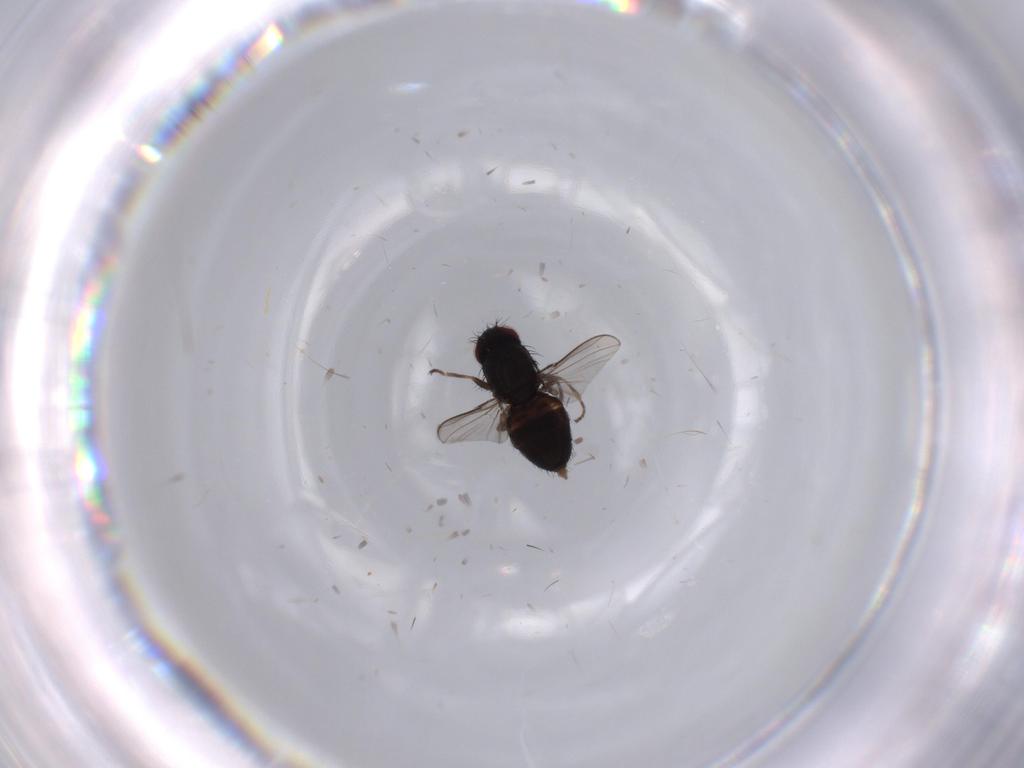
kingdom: Animalia
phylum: Arthropoda
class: Insecta
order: Diptera
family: Carnidae
